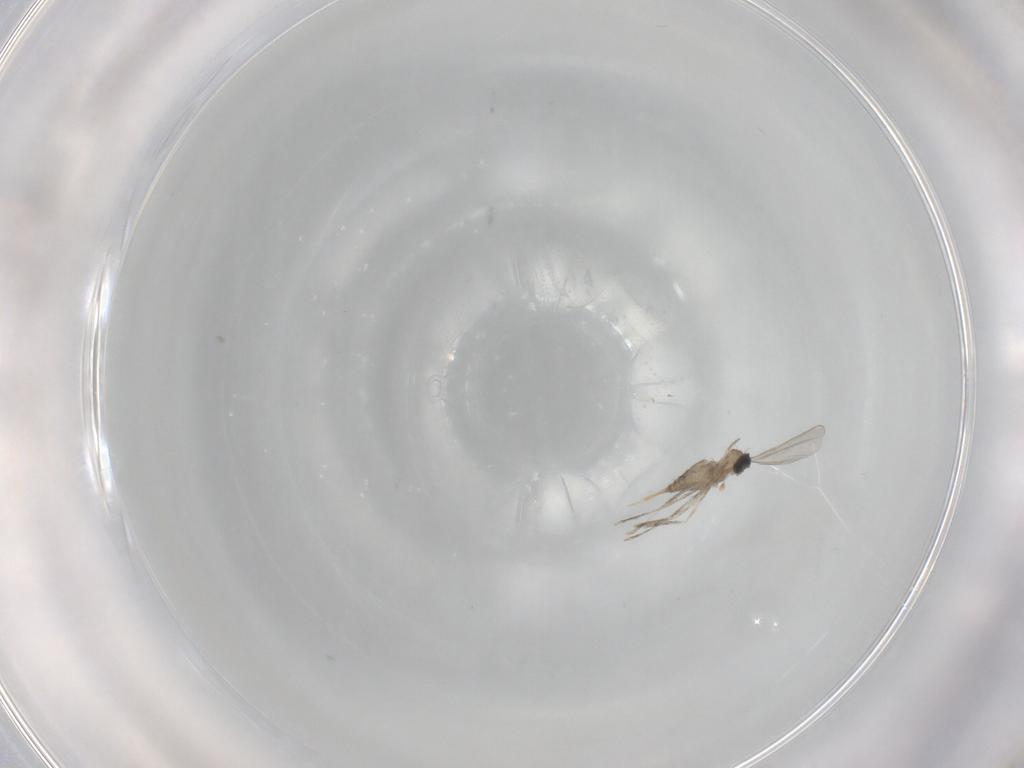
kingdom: Animalia
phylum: Arthropoda
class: Insecta
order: Diptera
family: Cecidomyiidae
